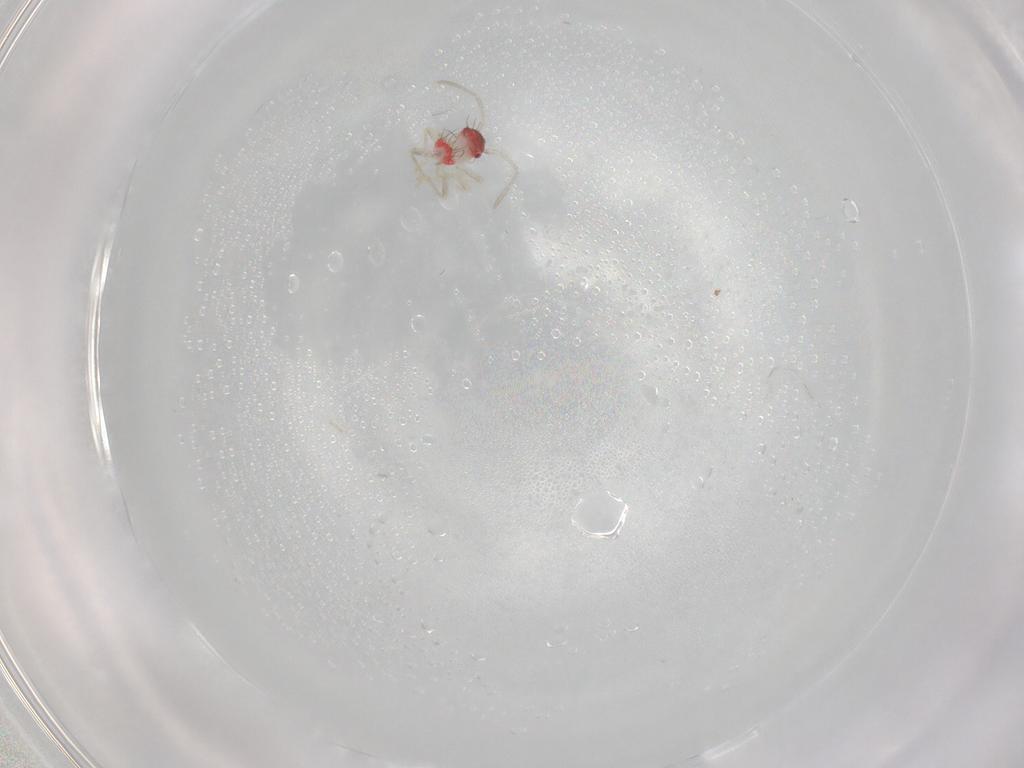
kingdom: Animalia
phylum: Arthropoda
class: Insecta
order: Hemiptera
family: Miridae
